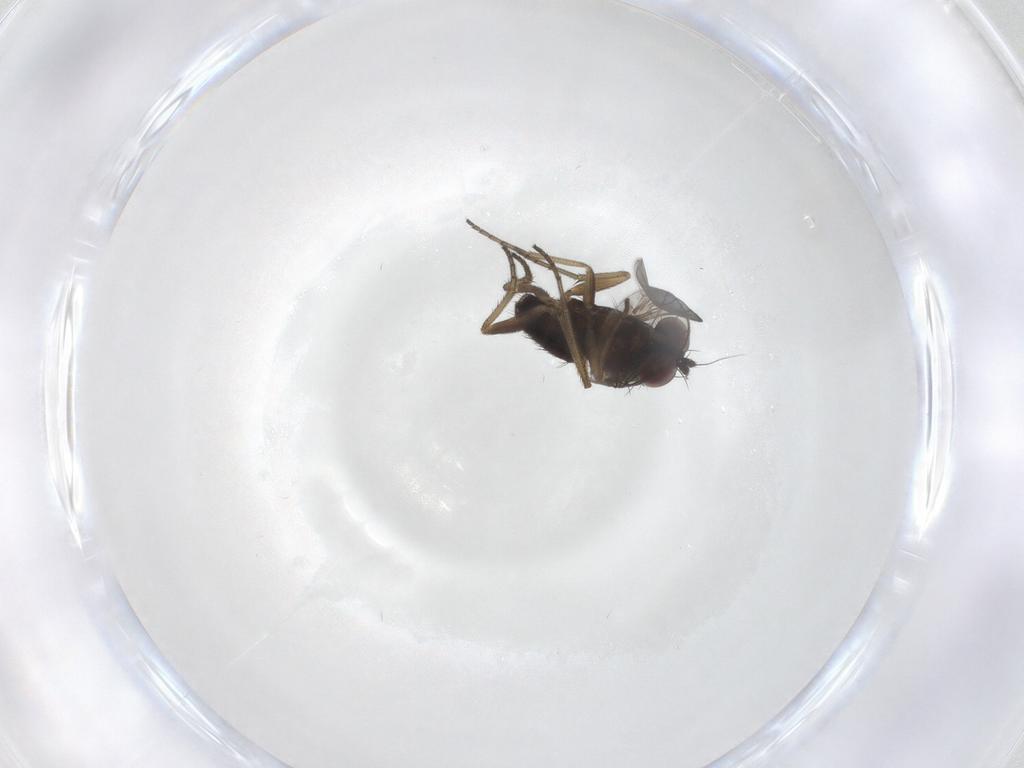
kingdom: Animalia
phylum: Arthropoda
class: Insecta
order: Diptera
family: Dolichopodidae
